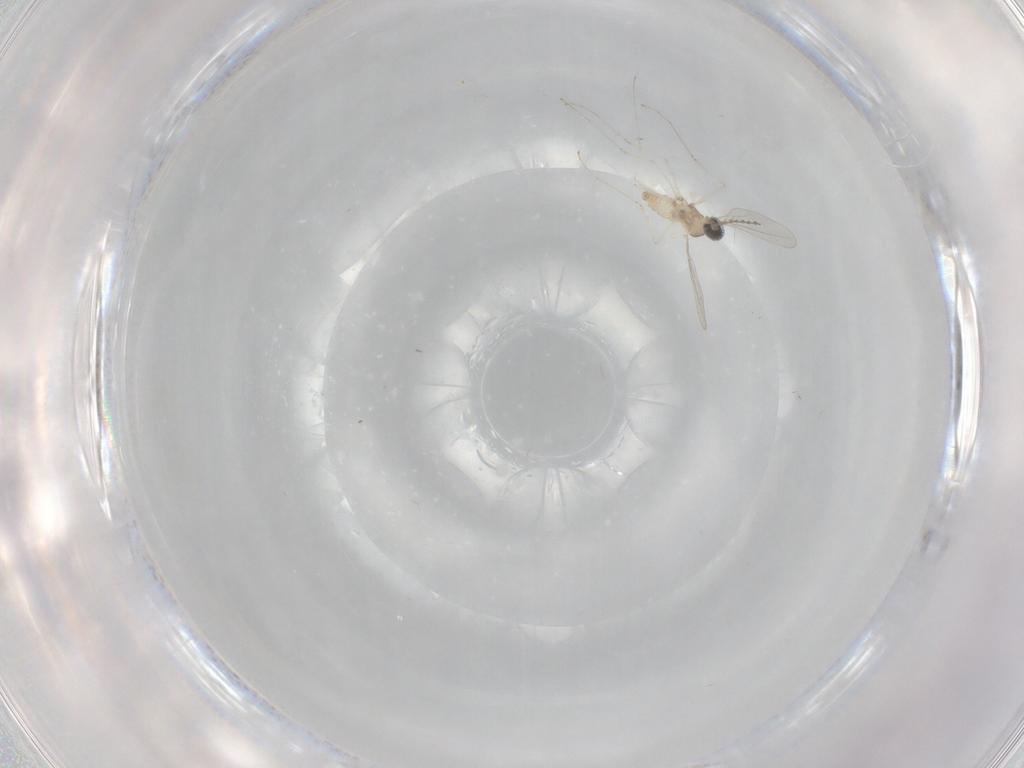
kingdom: Animalia
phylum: Arthropoda
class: Insecta
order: Diptera
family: Cecidomyiidae
